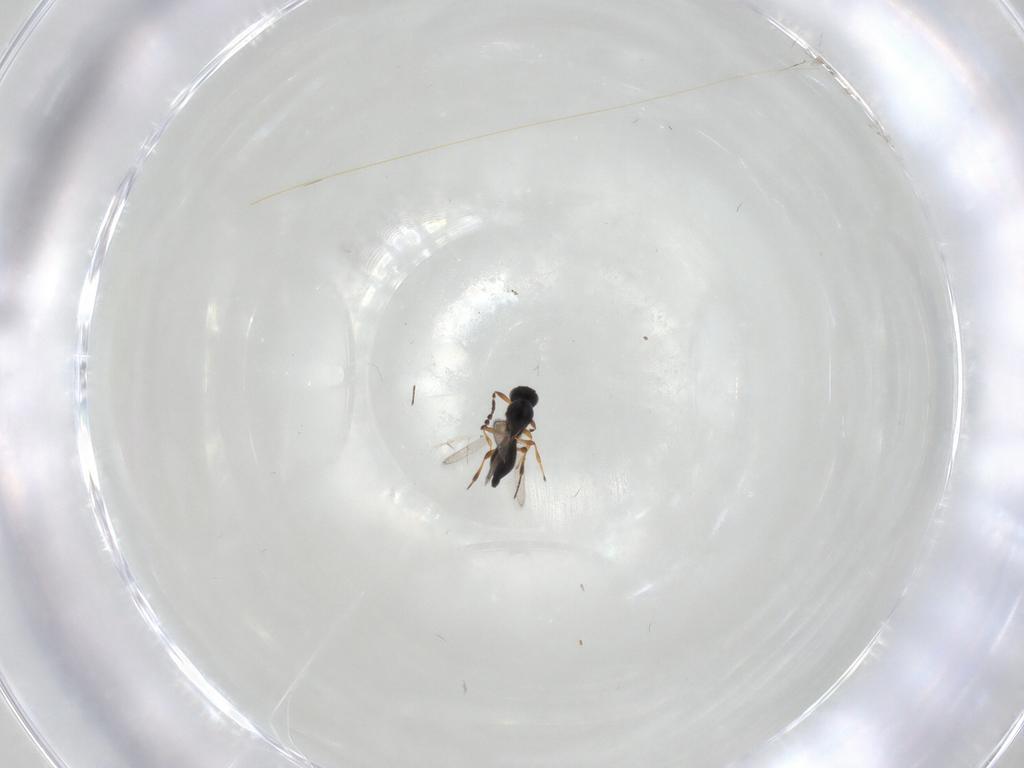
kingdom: Animalia
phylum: Arthropoda
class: Insecta
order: Hymenoptera
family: Platygastridae
